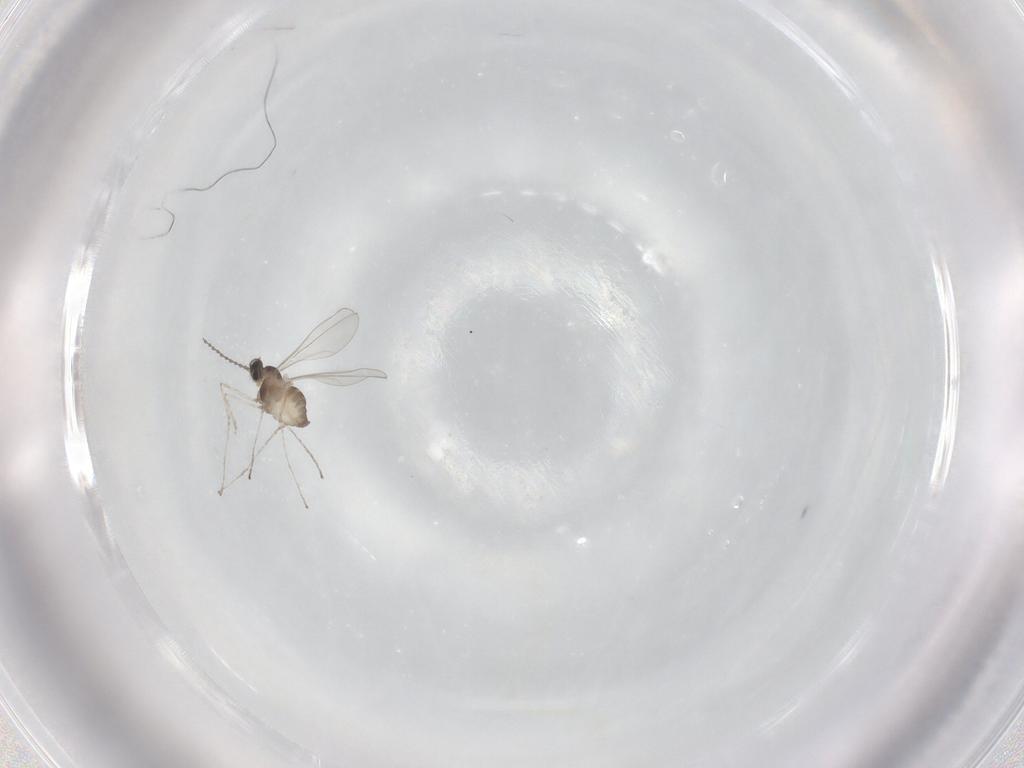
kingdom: Animalia
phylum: Arthropoda
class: Insecta
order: Diptera
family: Cecidomyiidae
